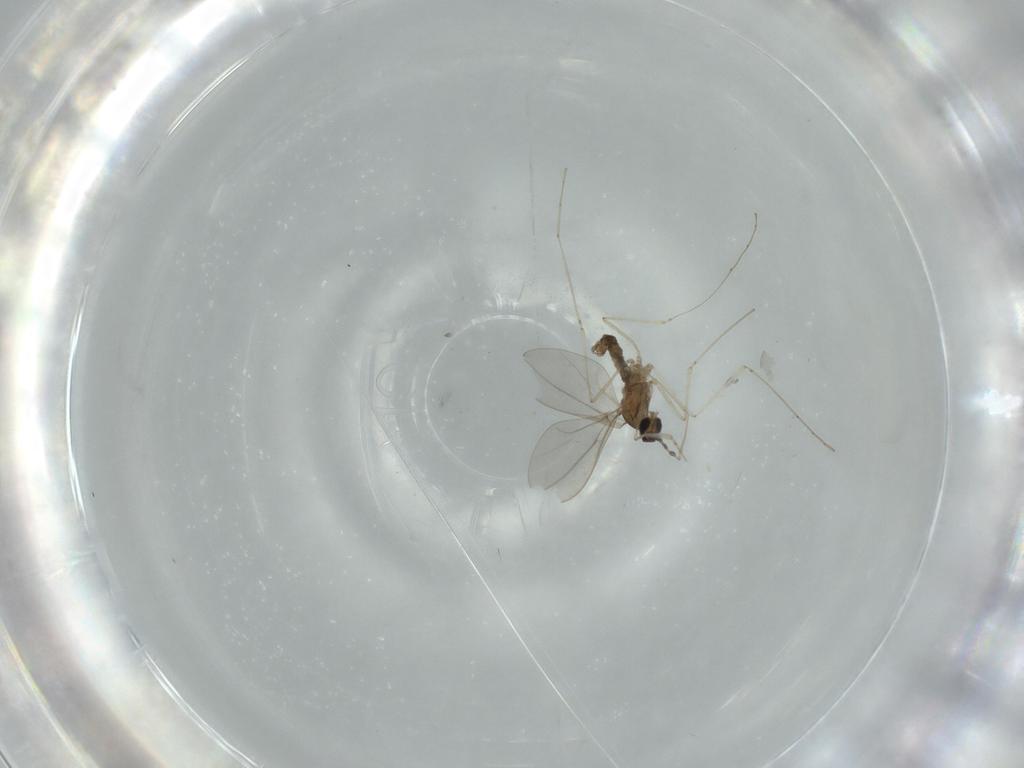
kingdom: Animalia
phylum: Arthropoda
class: Insecta
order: Diptera
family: Cecidomyiidae
